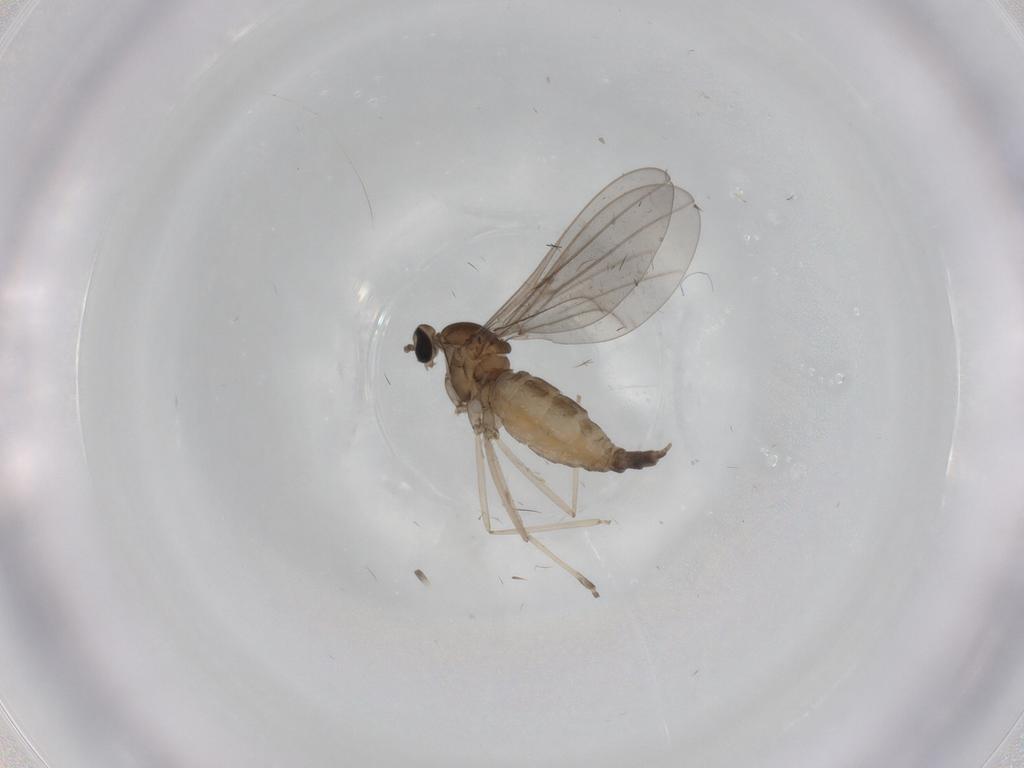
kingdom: Animalia
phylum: Arthropoda
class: Insecta
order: Diptera
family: Cecidomyiidae
